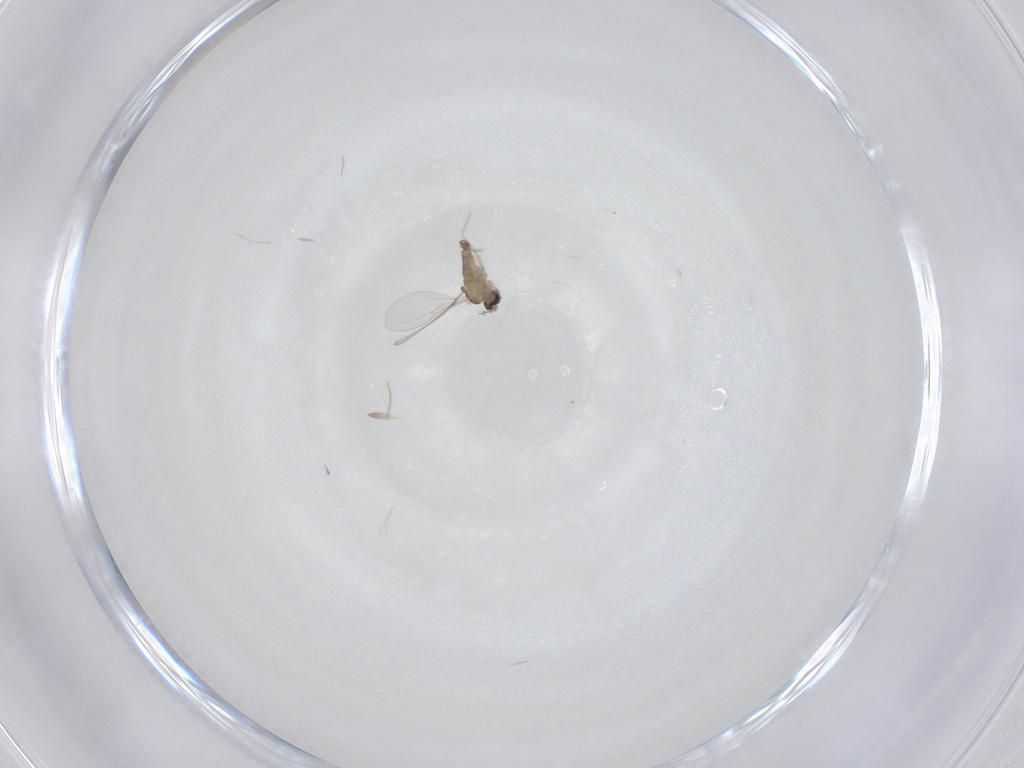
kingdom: Animalia
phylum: Arthropoda
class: Insecta
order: Diptera
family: Cecidomyiidae
